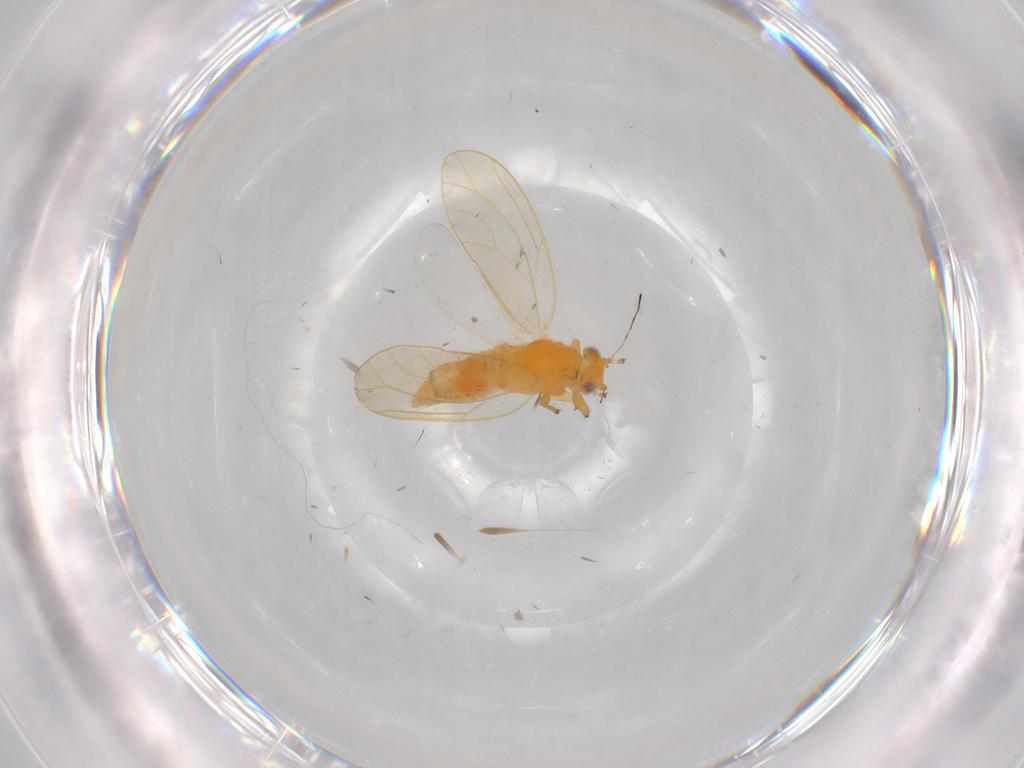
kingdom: Animalia
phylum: Arthropoda
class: Insecta
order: Hemiptera
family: Triozidae
